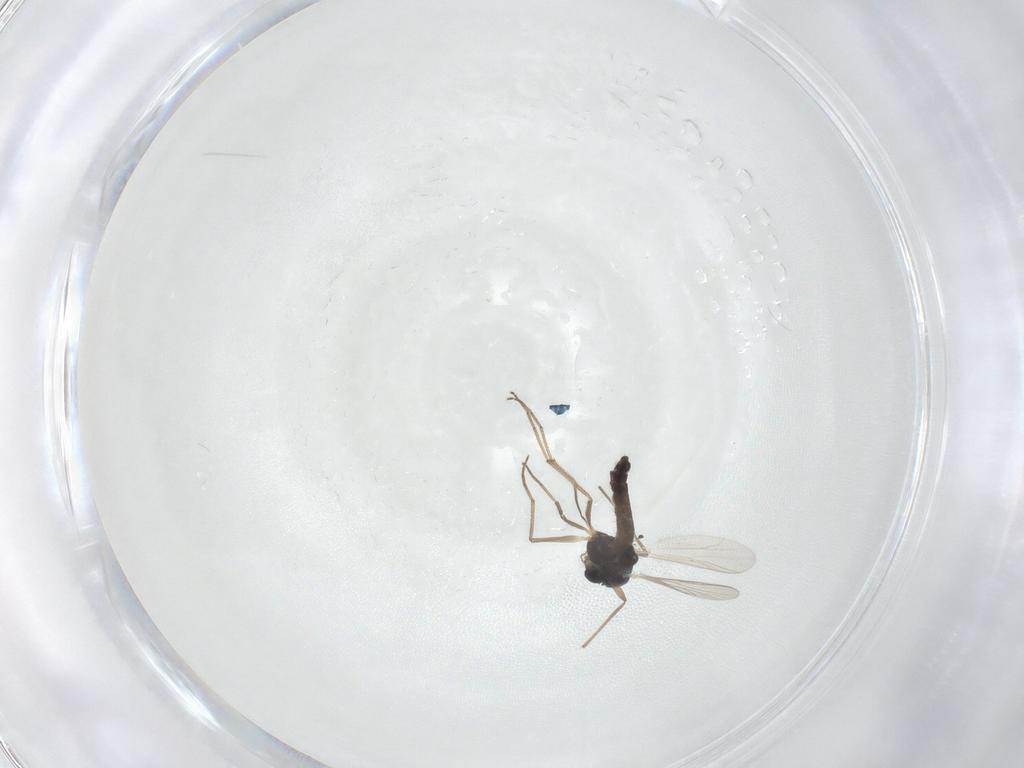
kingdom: Animalia
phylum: Arthropoda
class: Insecta
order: Diptera
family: Chironomidae
